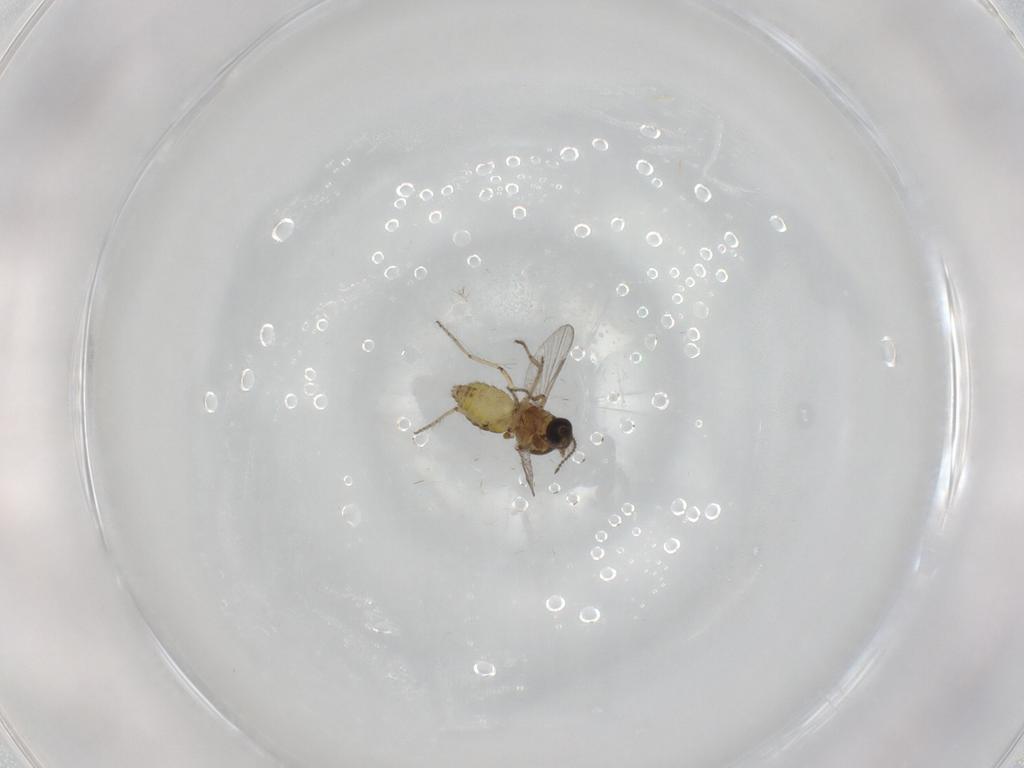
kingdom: Animalia
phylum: Arthropoda
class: Insecta
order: Diptera
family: Ceratopogonidae
